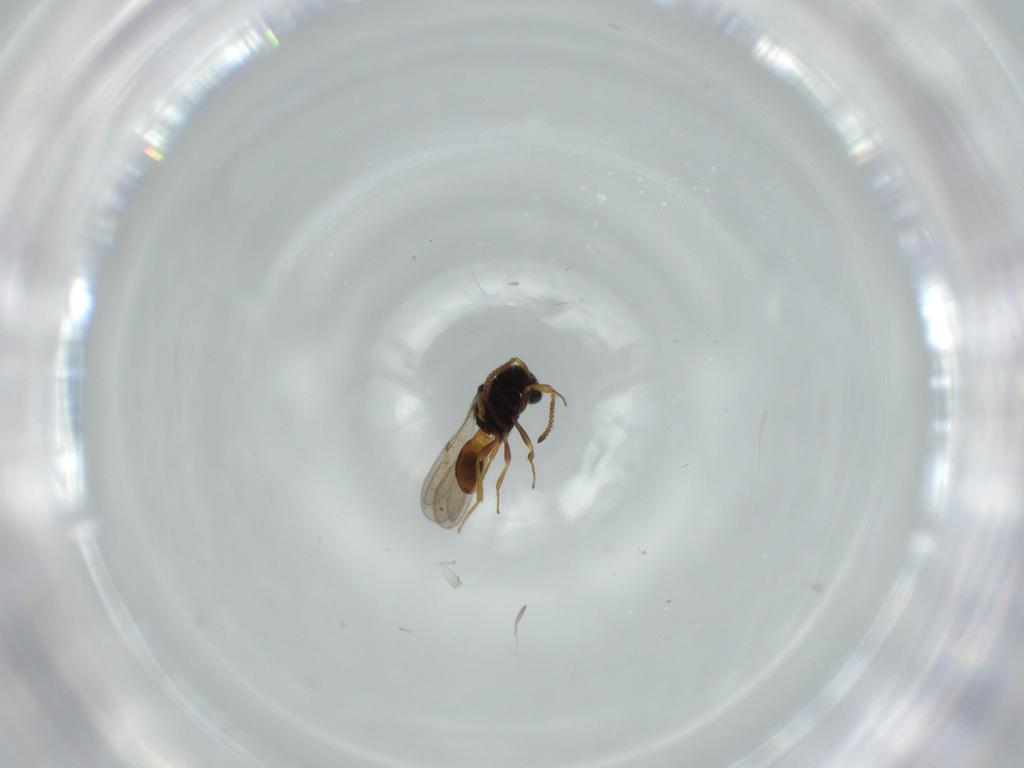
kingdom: Animalia
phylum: Arthropoda
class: Insecta
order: Hymenoptera
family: Scelionidae
